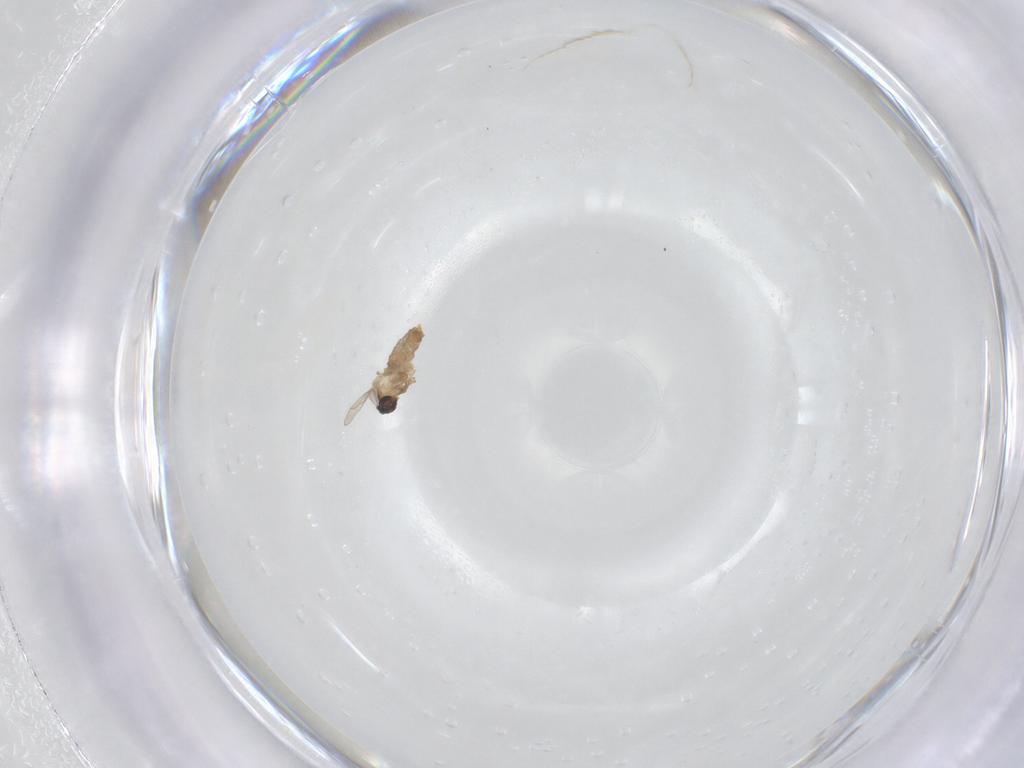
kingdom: Animalia
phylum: Arthropoda
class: Insecta
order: Diptera
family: Cecidomyiidae
